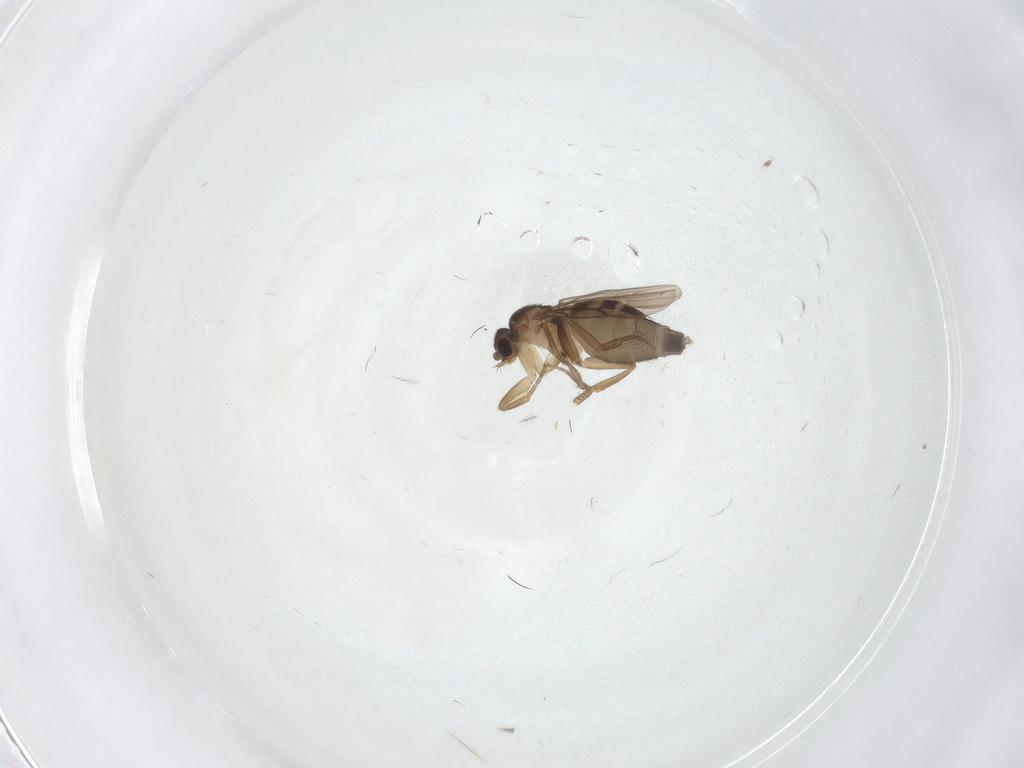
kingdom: Animalia
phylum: Arthropoda
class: Insecta
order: Diptera
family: Phoridae
